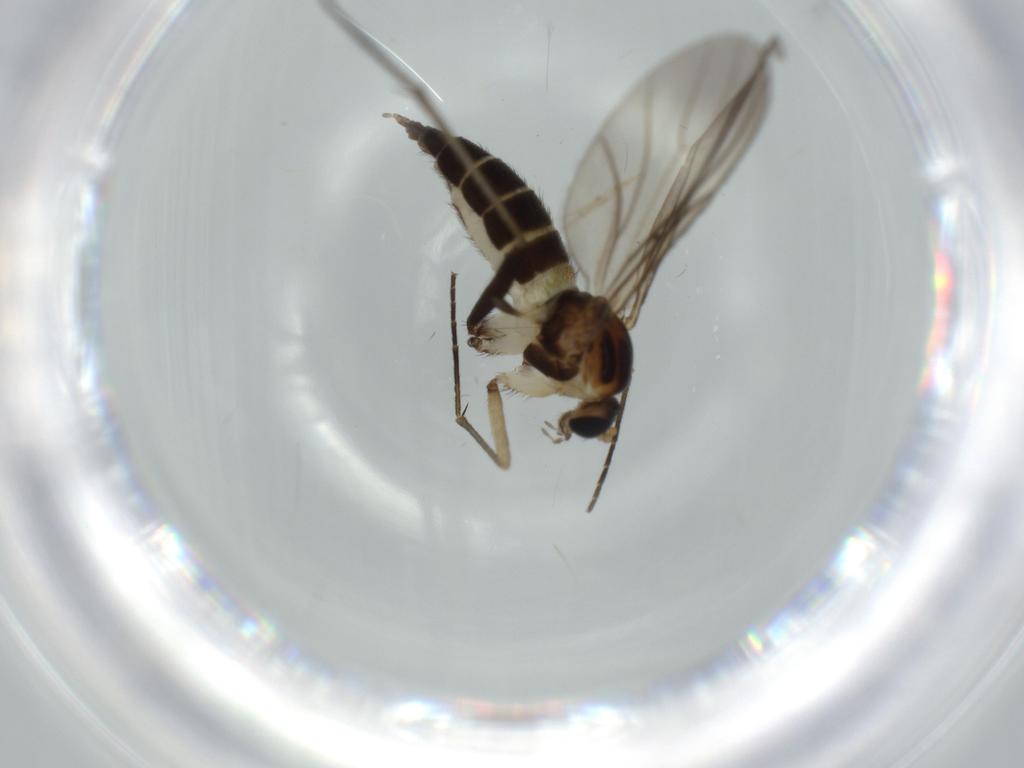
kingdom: Animalia
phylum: Arthropoda
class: Insecta
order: Diptera
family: Sciaridae
